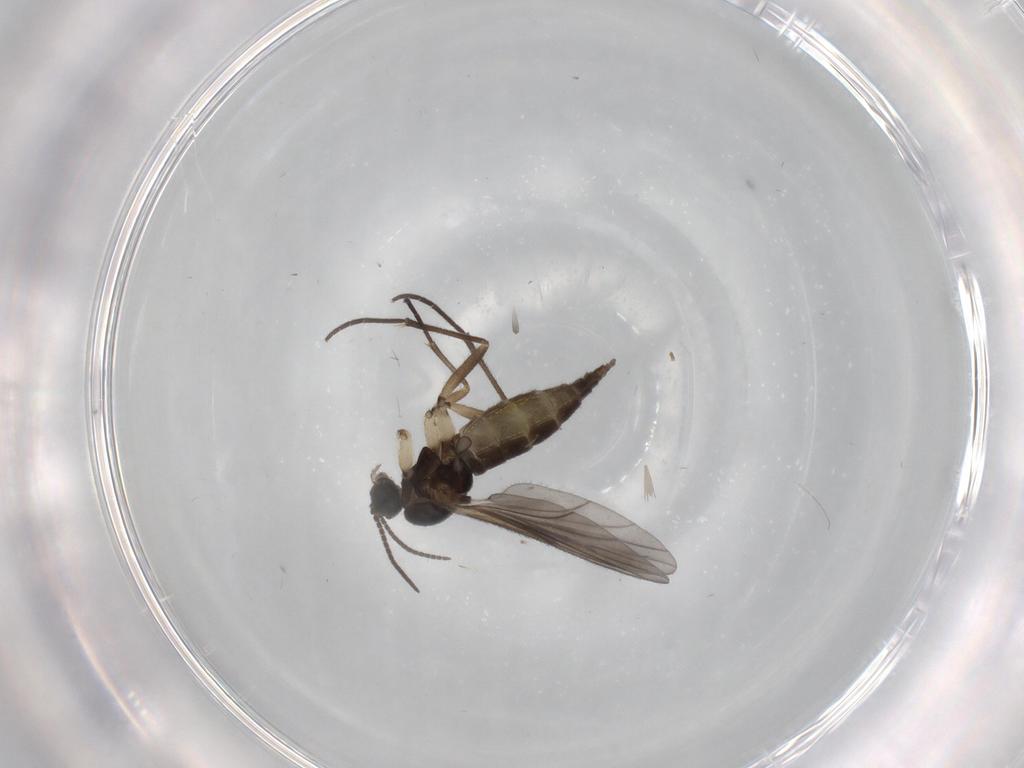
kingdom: Animalia
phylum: Arthropoda
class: Insecta
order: Diptera
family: Sciaridae
